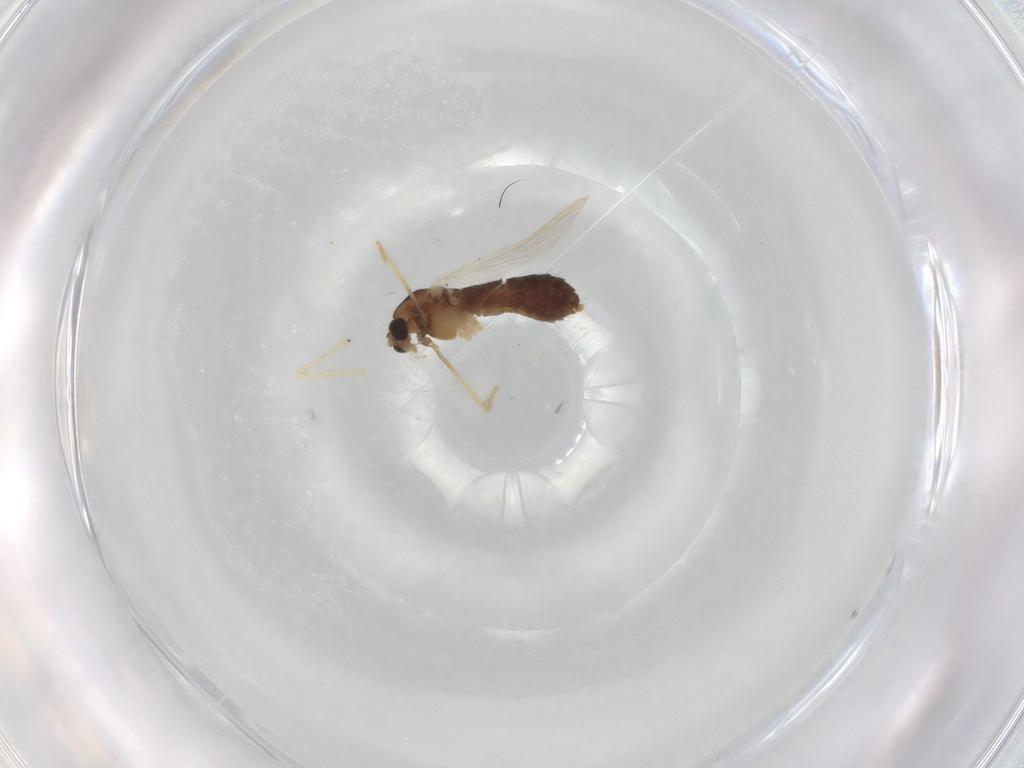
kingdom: Animalia
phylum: Arthropoda
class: Insecta
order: Diptera
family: Chironomidae
